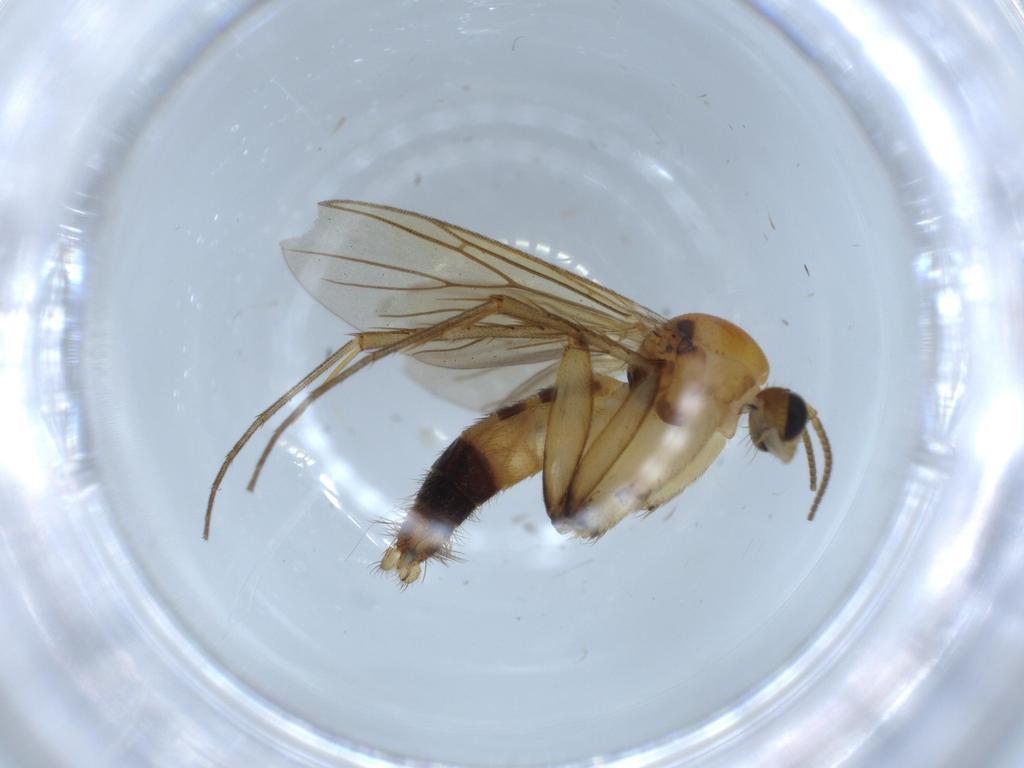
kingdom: Animalia
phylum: Arthropoda
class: Insecta
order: Diptera
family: Mycetophilidae
